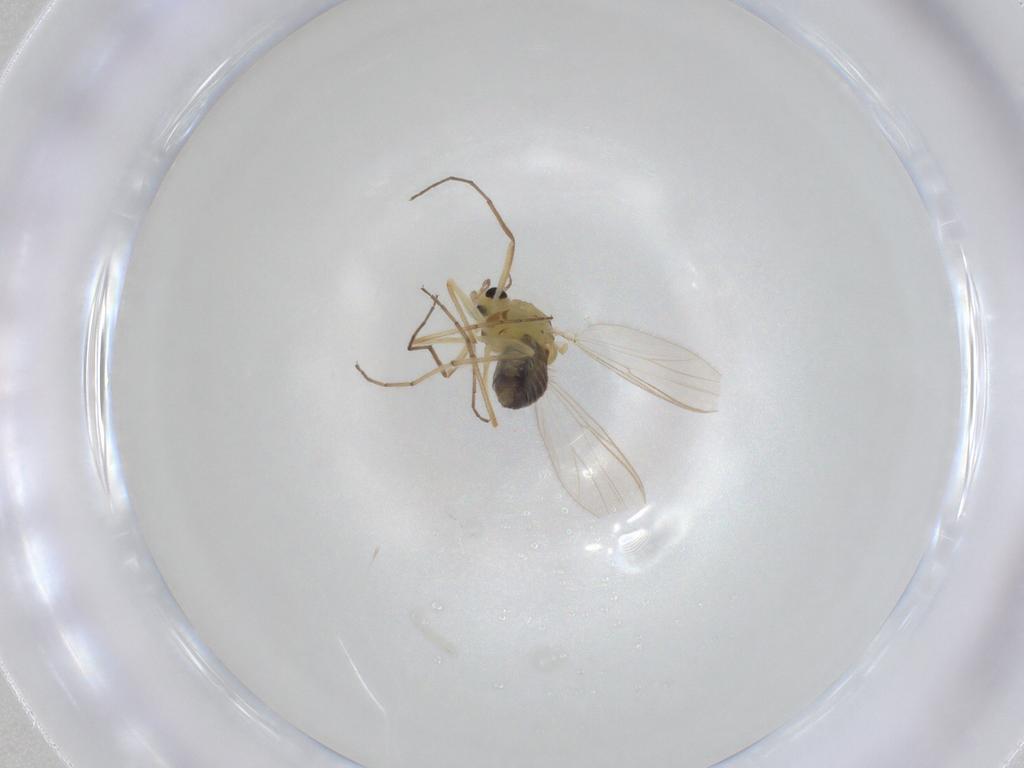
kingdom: Animalia
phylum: Arthropoda
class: Insecta
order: Diptera
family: Chironomidae
